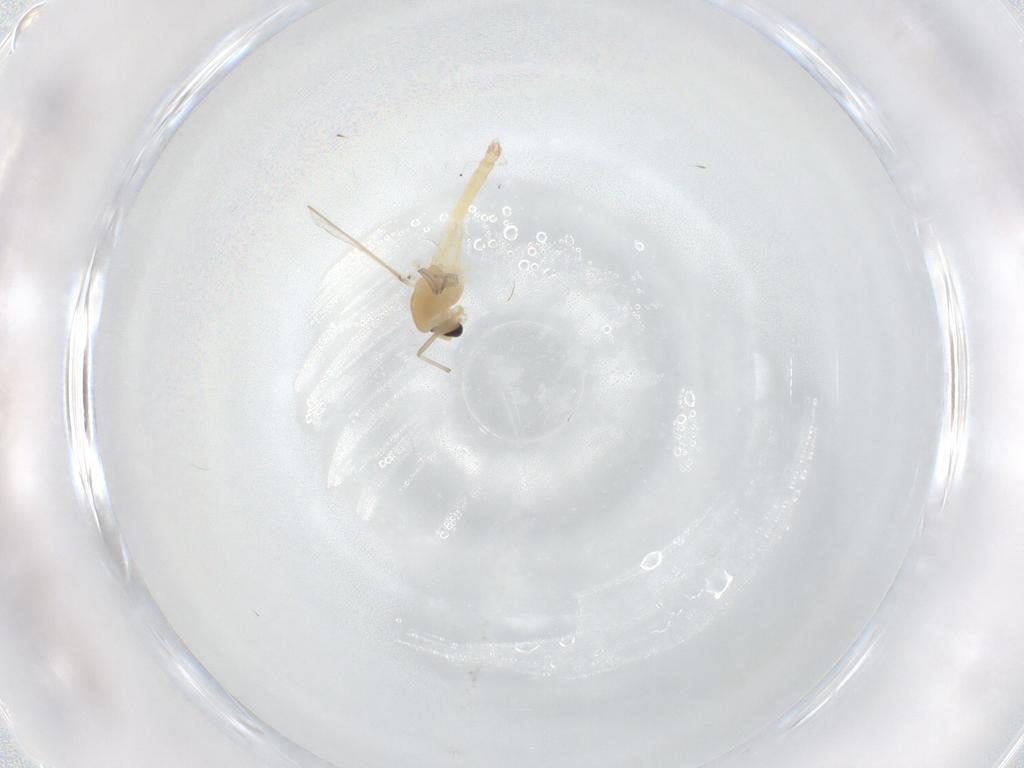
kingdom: Animalia
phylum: Arthropoda
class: Insecta
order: Diptera
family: Chironomidae
